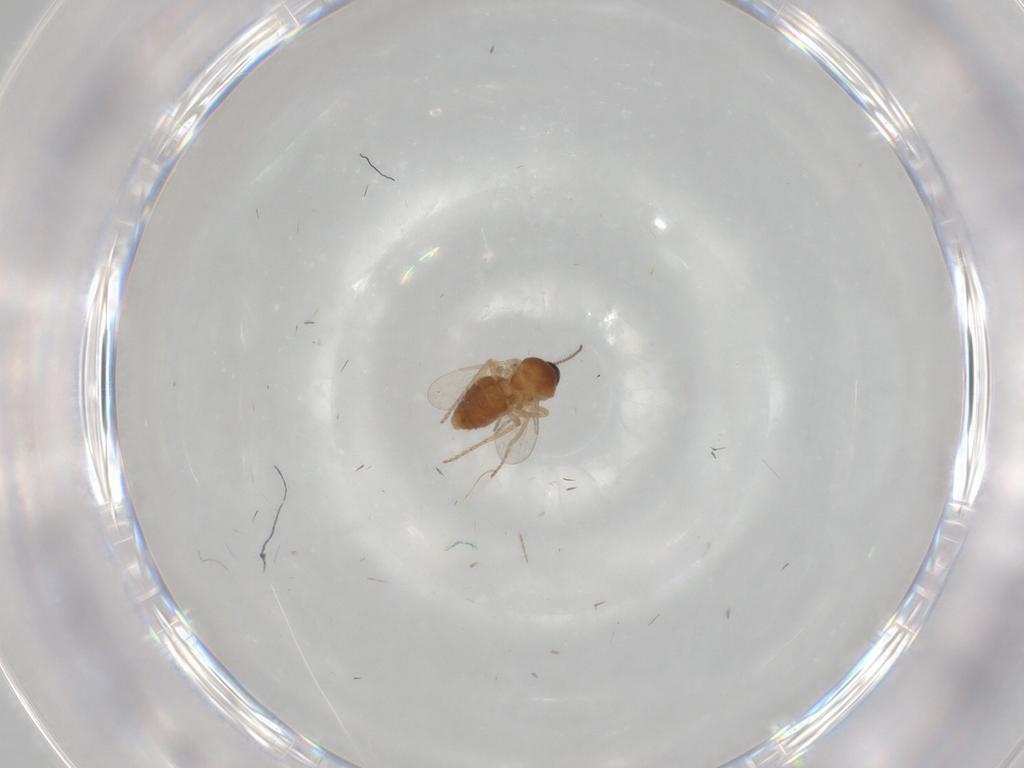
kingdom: Animalia
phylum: Arthropoda
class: Insecta
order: Diptera
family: Ceratopogonidae
